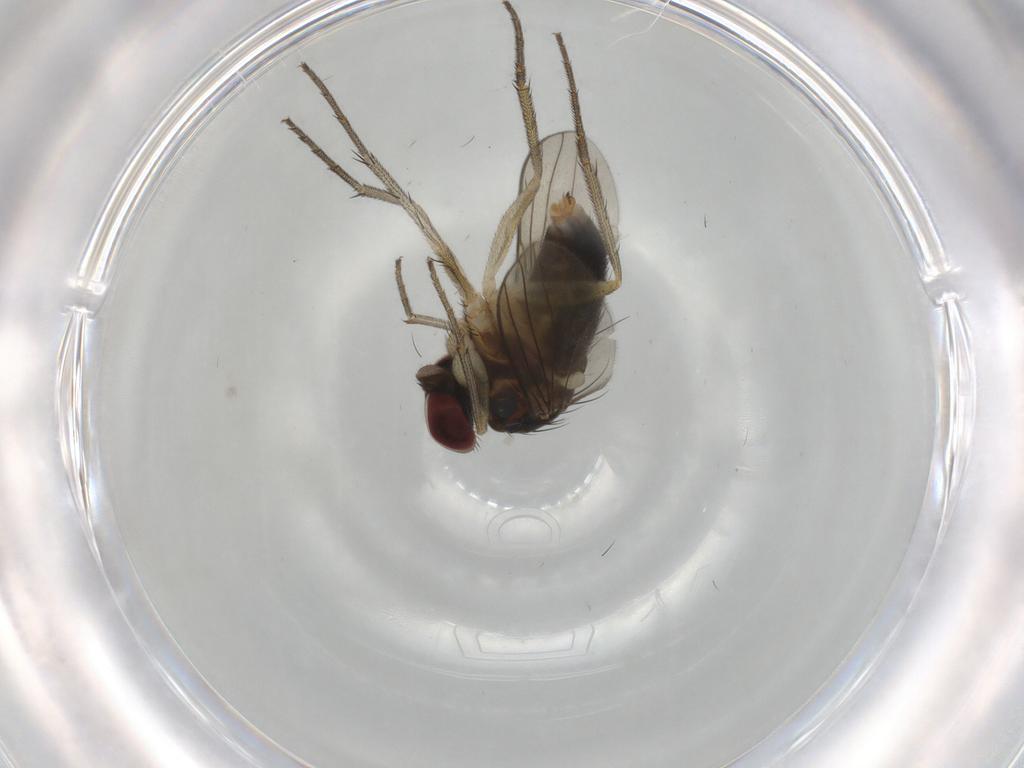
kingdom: Animalia
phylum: Arthropoda
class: Insecta
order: Diptera
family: Dolichopodidae
